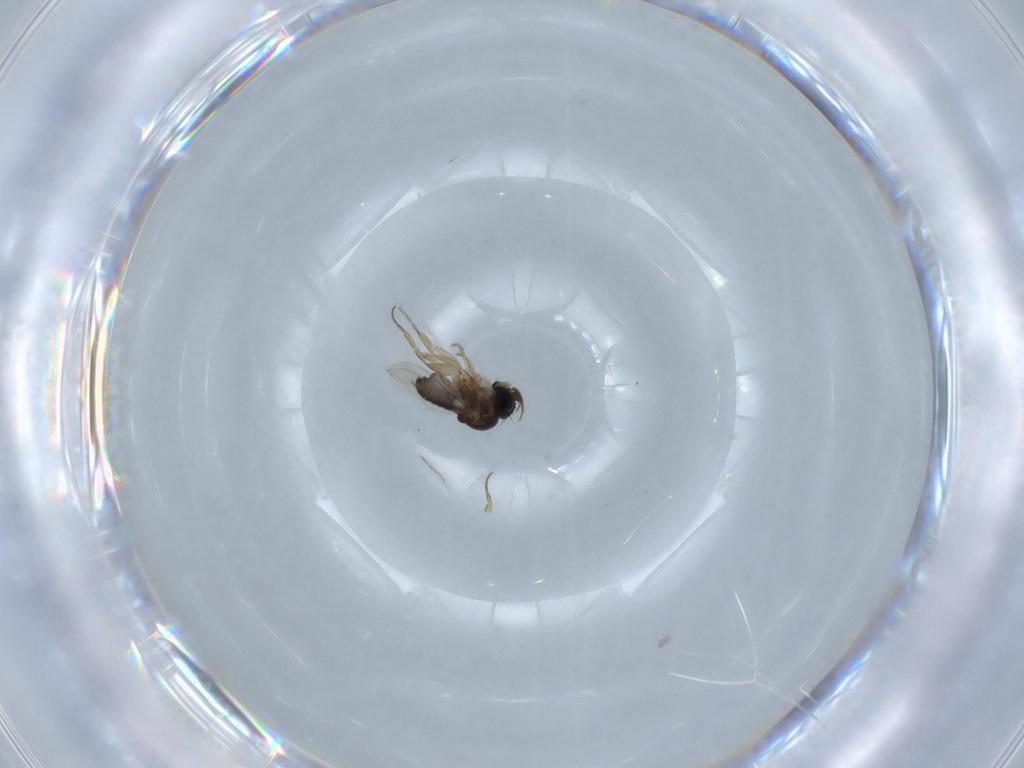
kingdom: Animalia
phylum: Arthropoda
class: Insecta
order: Diptera
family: Phoridae
